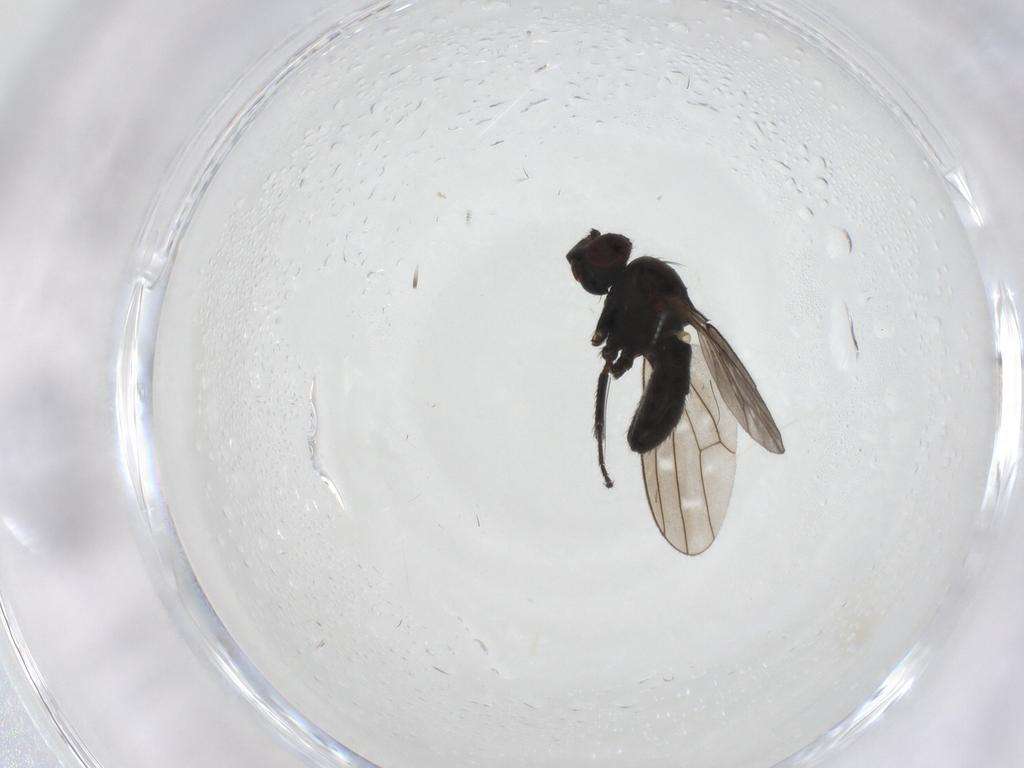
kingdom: Animalia
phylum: Arthropoda
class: Insecta
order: Diptera
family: Ephydridae
